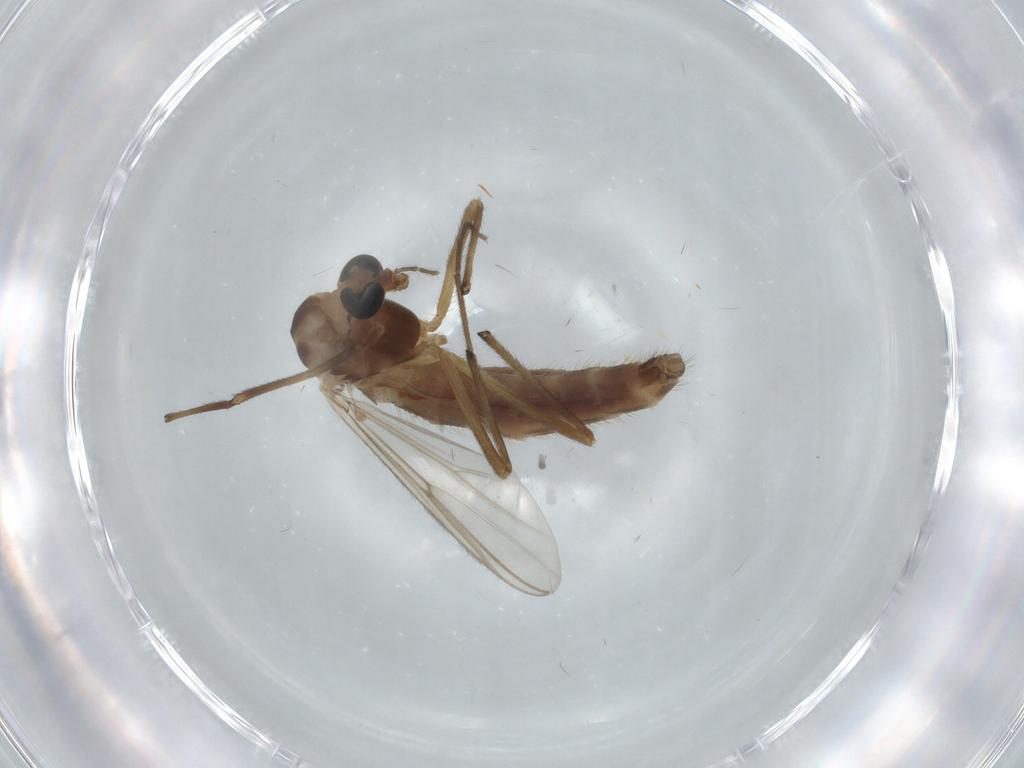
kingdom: Animalia
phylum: Arthropoda
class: Insecta
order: Diptera
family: Chironomidae
